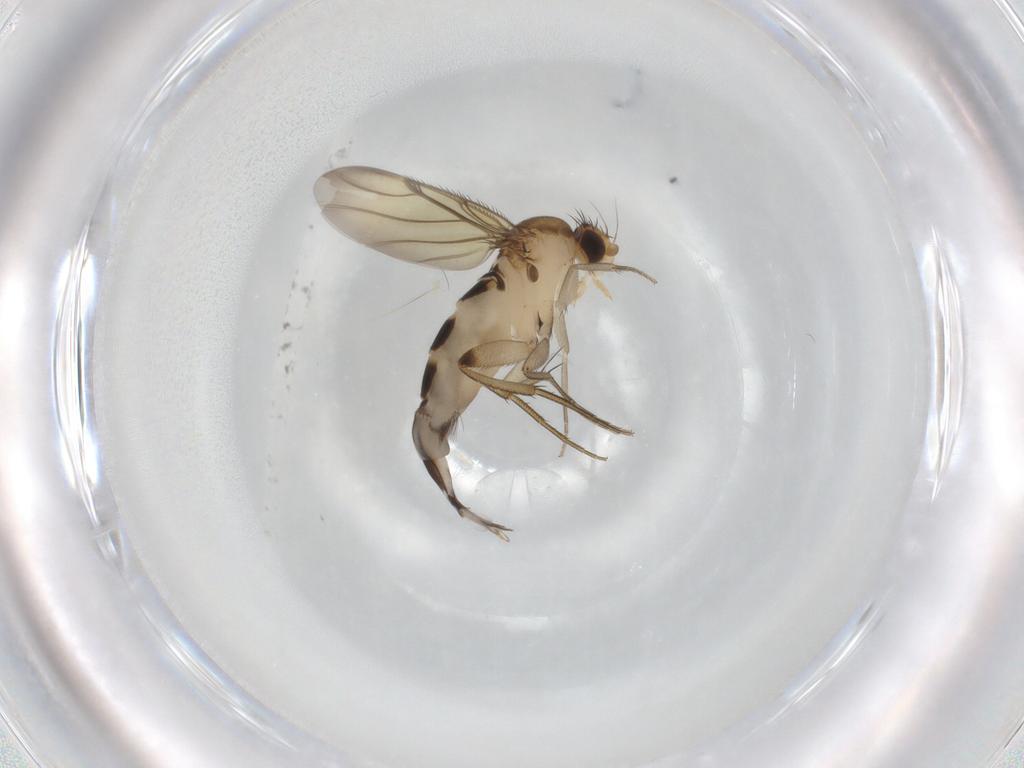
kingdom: Animalia
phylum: Arthropoda
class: Insecta
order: Diptera
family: Phoridae
